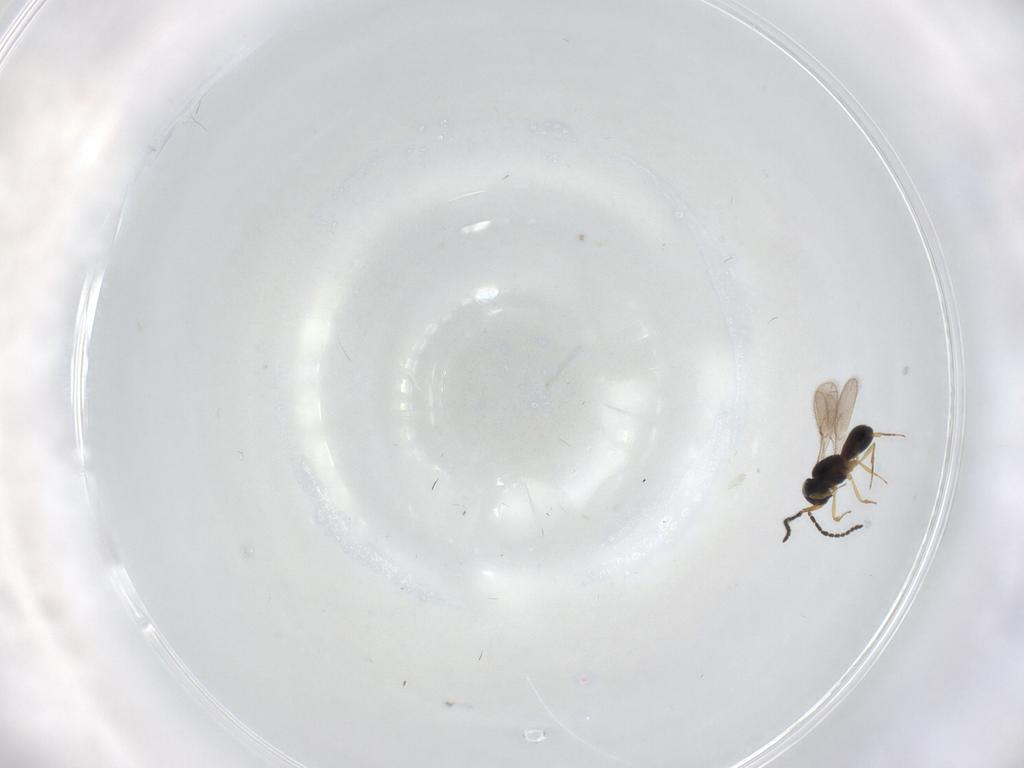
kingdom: Animalia
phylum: Arthropoda
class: Insecta
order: Hymenoptera
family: Scelionidae
